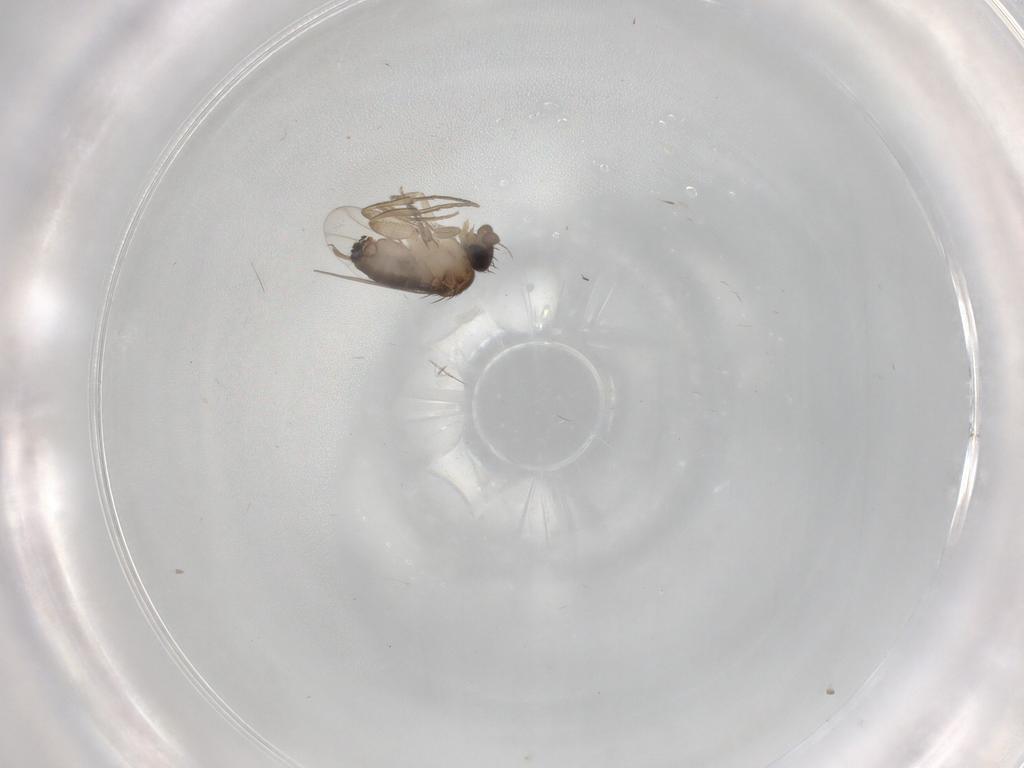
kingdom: Animalia
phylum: Arthropoda
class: Insecta
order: Diptera
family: Drosophilidae
